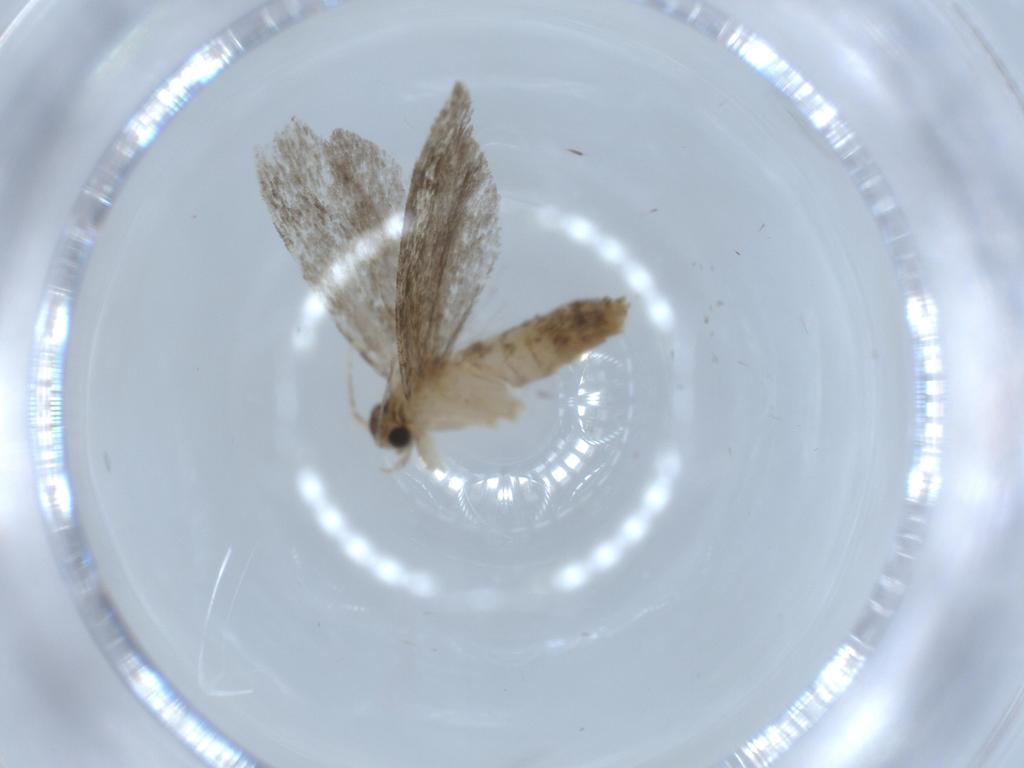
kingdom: Animalia
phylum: Arthropoda
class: Insecta
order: Lepidoptera
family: Tineidae
